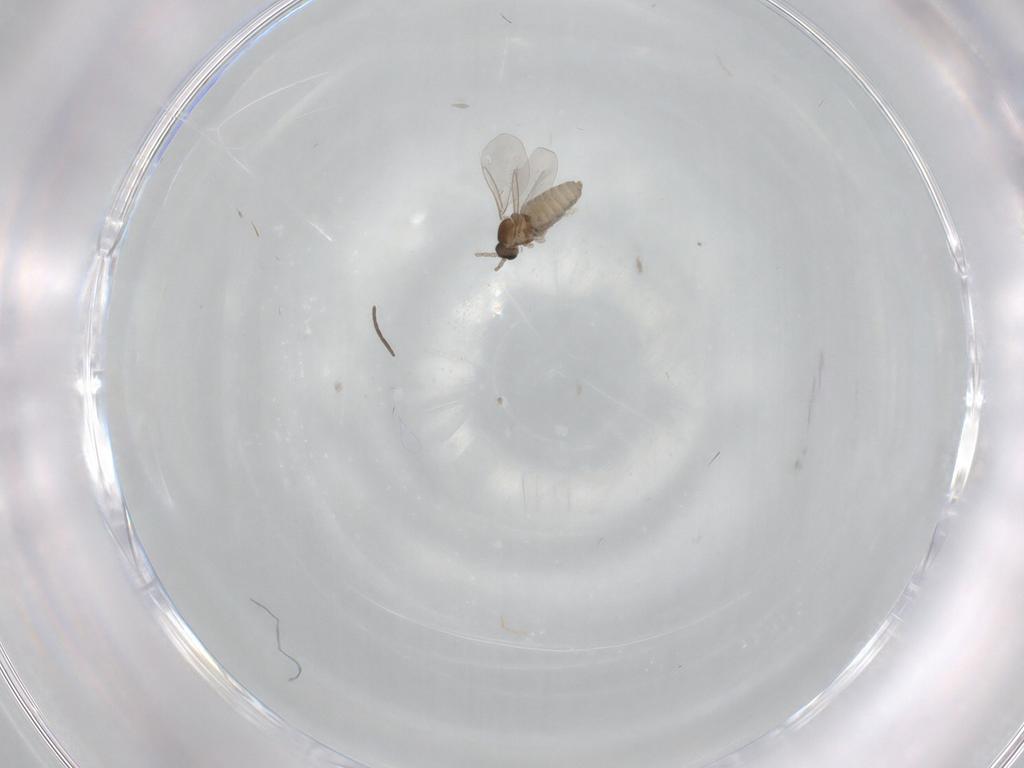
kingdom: Animalia
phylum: Arthropoda
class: Insecta
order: Diptera
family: Cecidomyiidae
